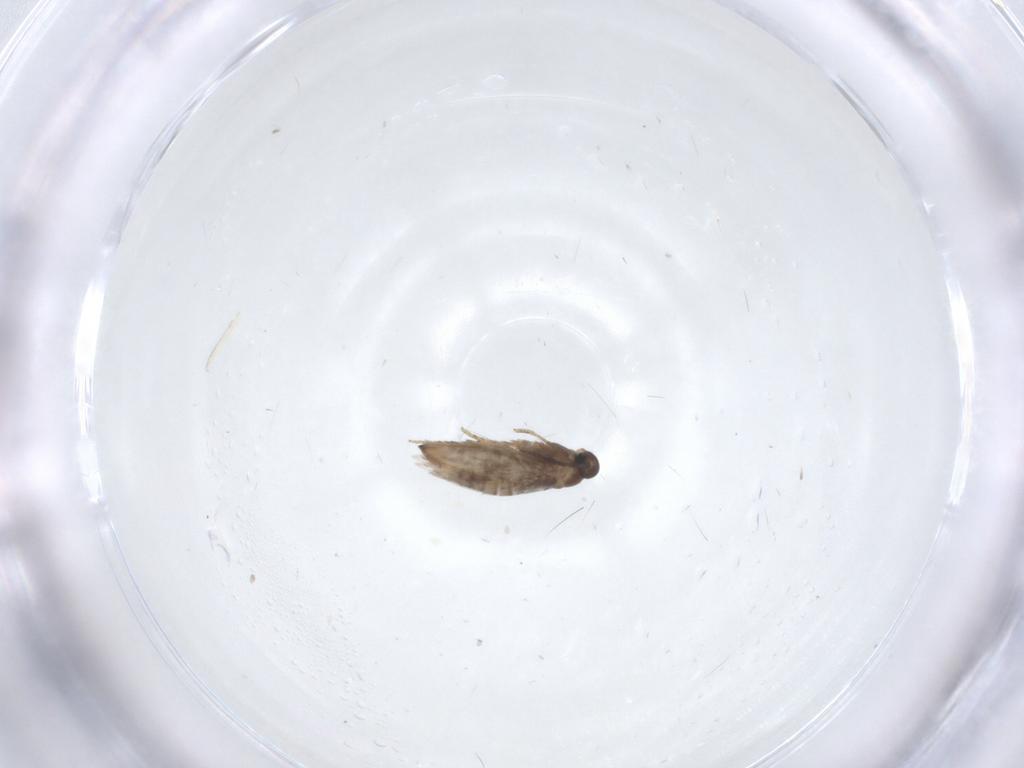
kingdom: Animalia
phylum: Arthropoda
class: Insecta
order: Lepidoptera
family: Heliozelidae
